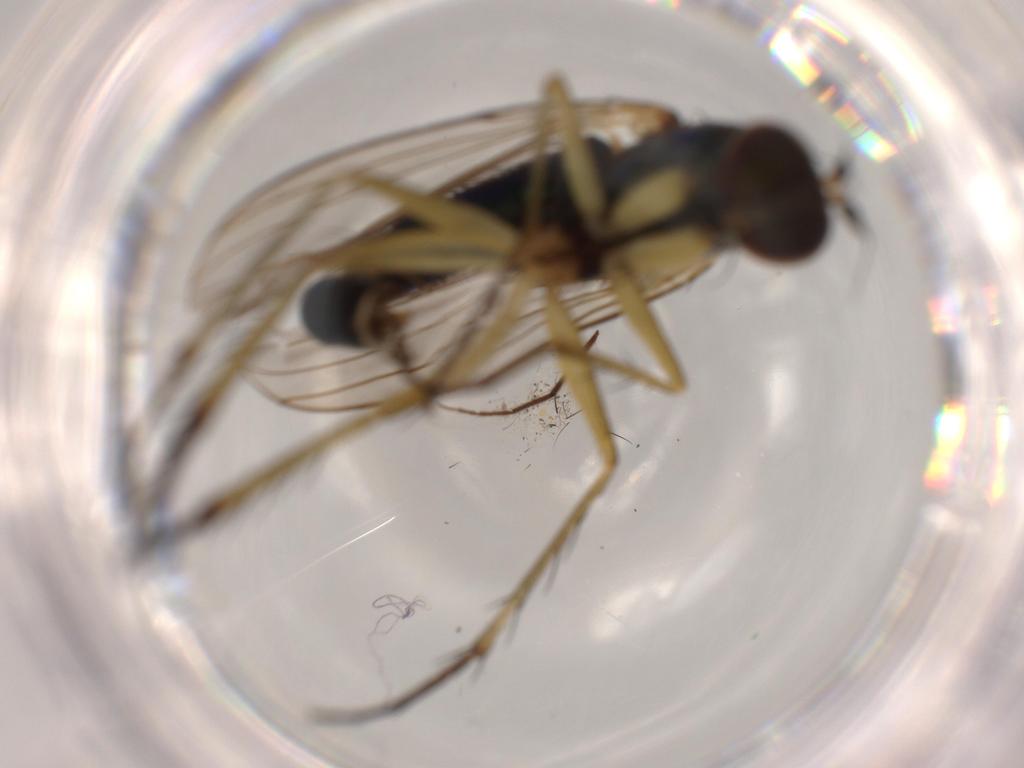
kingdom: Animalia
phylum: Arthropoda
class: Insecta
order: Diptera
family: Dolichopodidae
